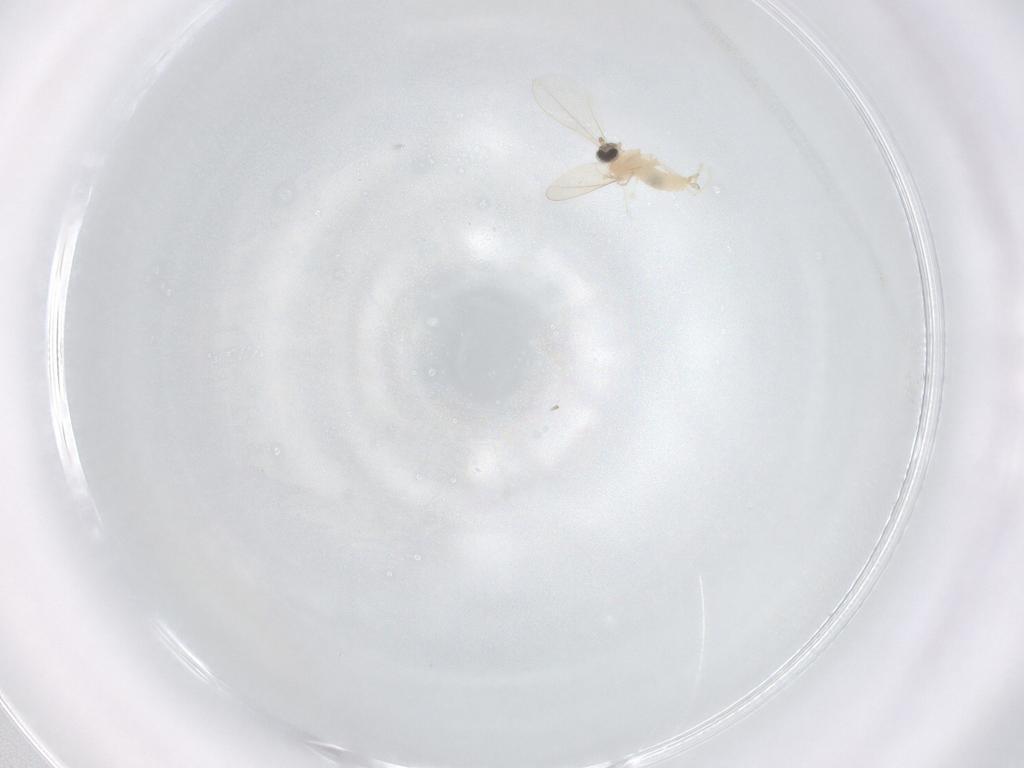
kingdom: Animalia
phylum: Arthropoda
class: Insecta
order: Diptera
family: Cecidomyiidae
